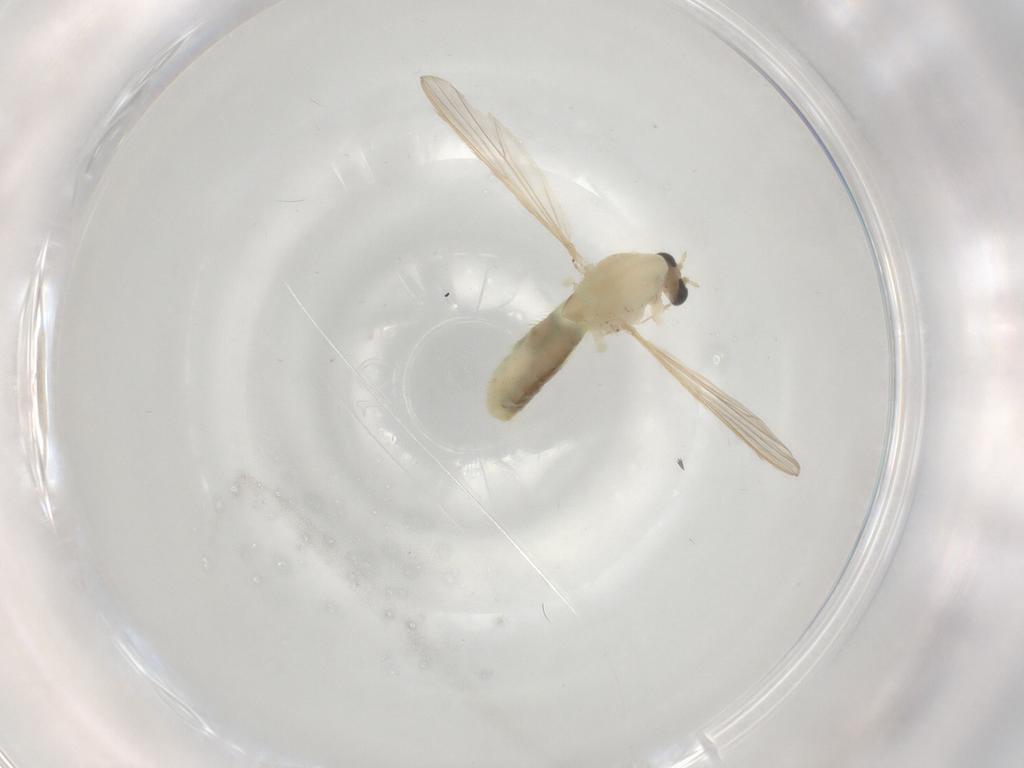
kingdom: Animalia
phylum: Arthropoda
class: Insecta
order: Diptera
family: Chironomidae
